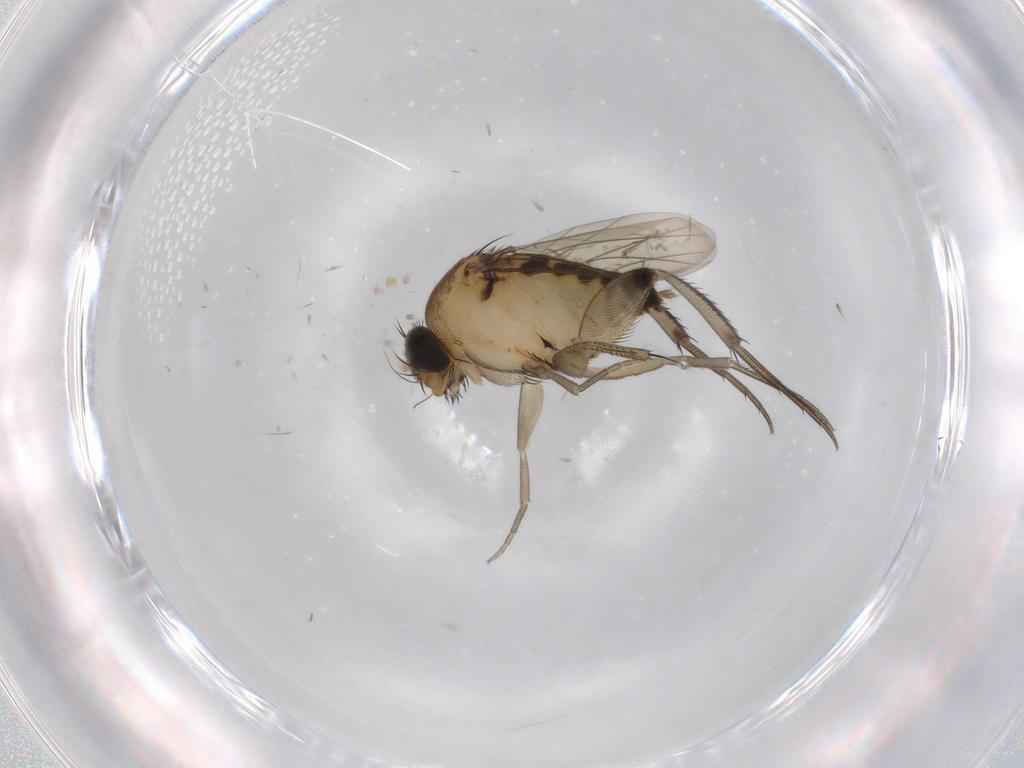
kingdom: Animalia
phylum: Arthropoda
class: Insecta
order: Diptera
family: Phoridae
